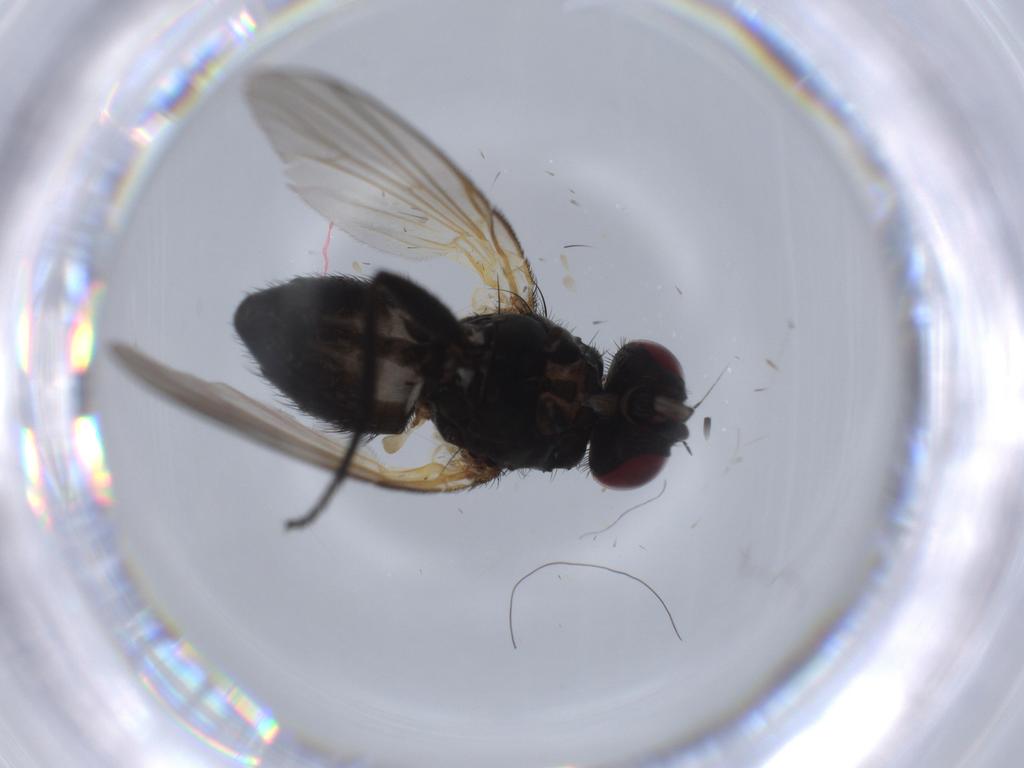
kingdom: Animalia
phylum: Arthropoda
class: Insecta
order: Diptera
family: Fannia
